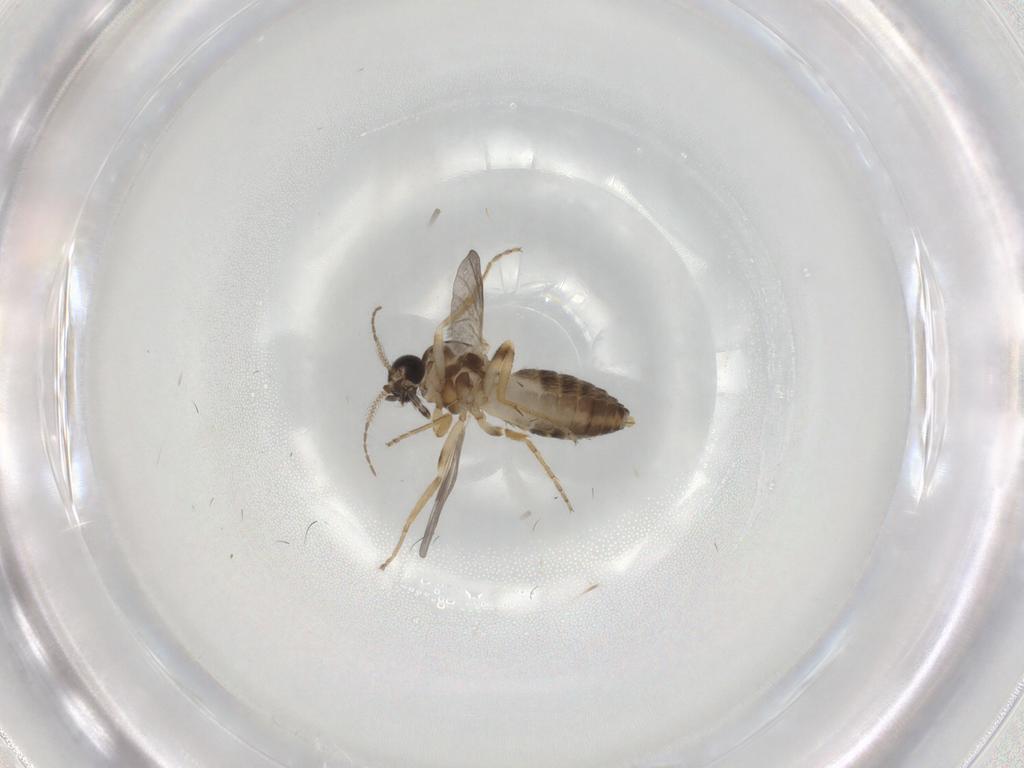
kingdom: Animalia
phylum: Arthropoda
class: Insecta
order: Diptera
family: Ceratopogonidae
